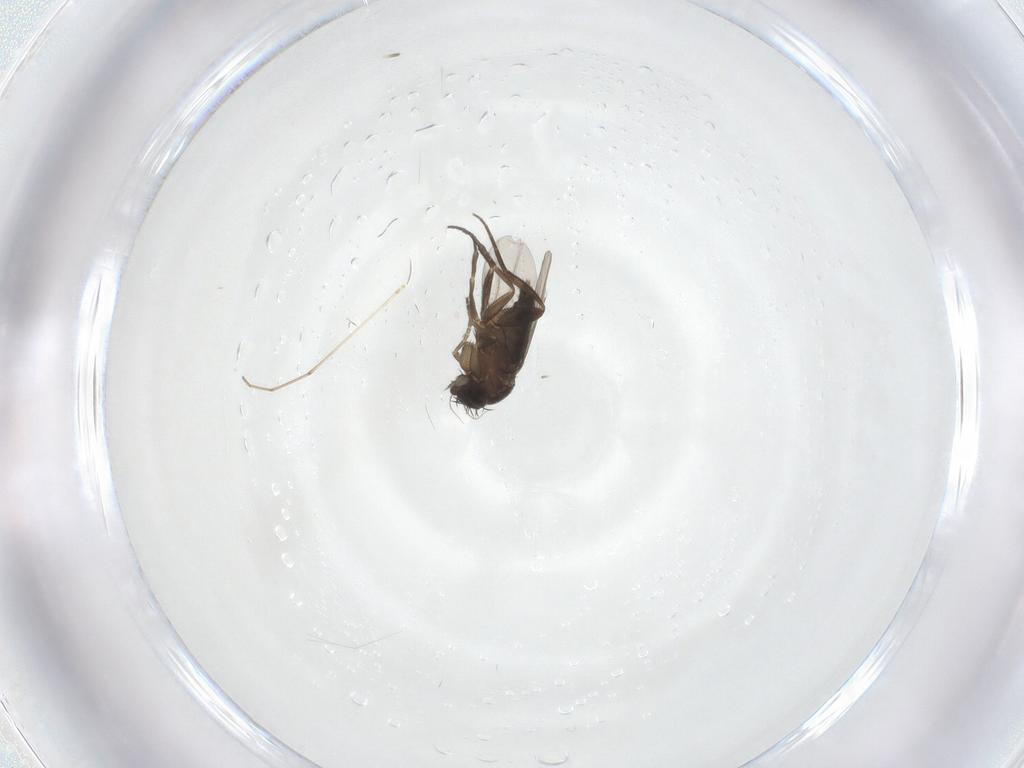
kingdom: Animalia
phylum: Arthropoda
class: Insecta
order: Diptera
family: Phoridae
